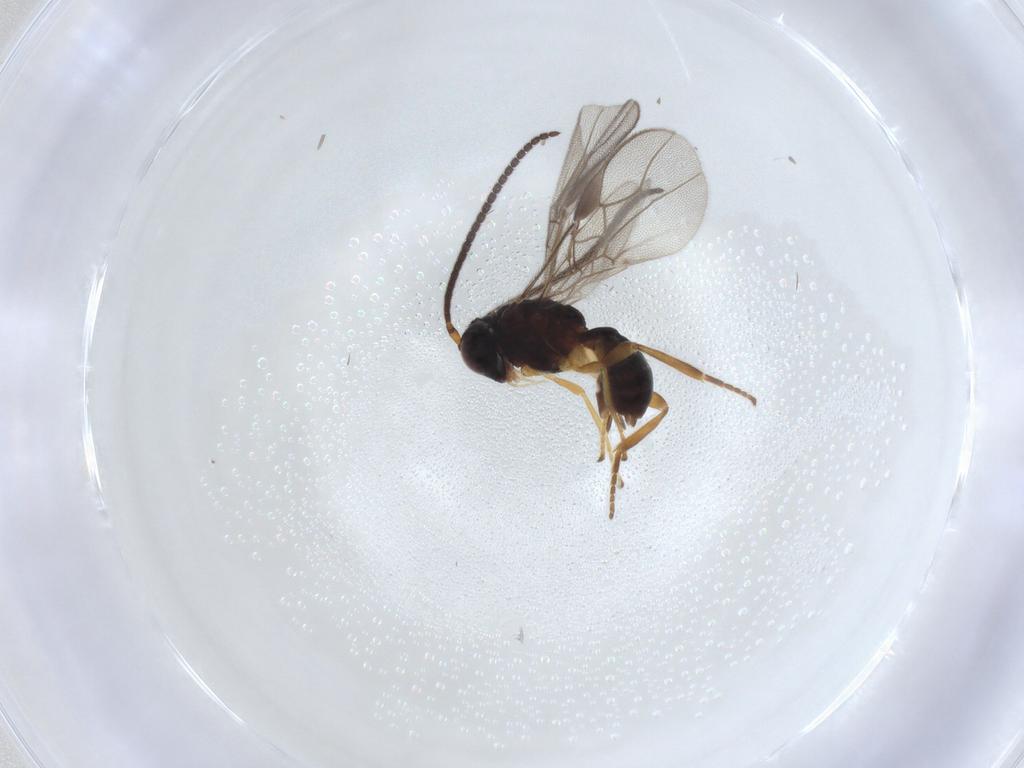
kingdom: Animalia
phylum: Arthropoda
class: Insecta
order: Hymenoptera
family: Braconidae
